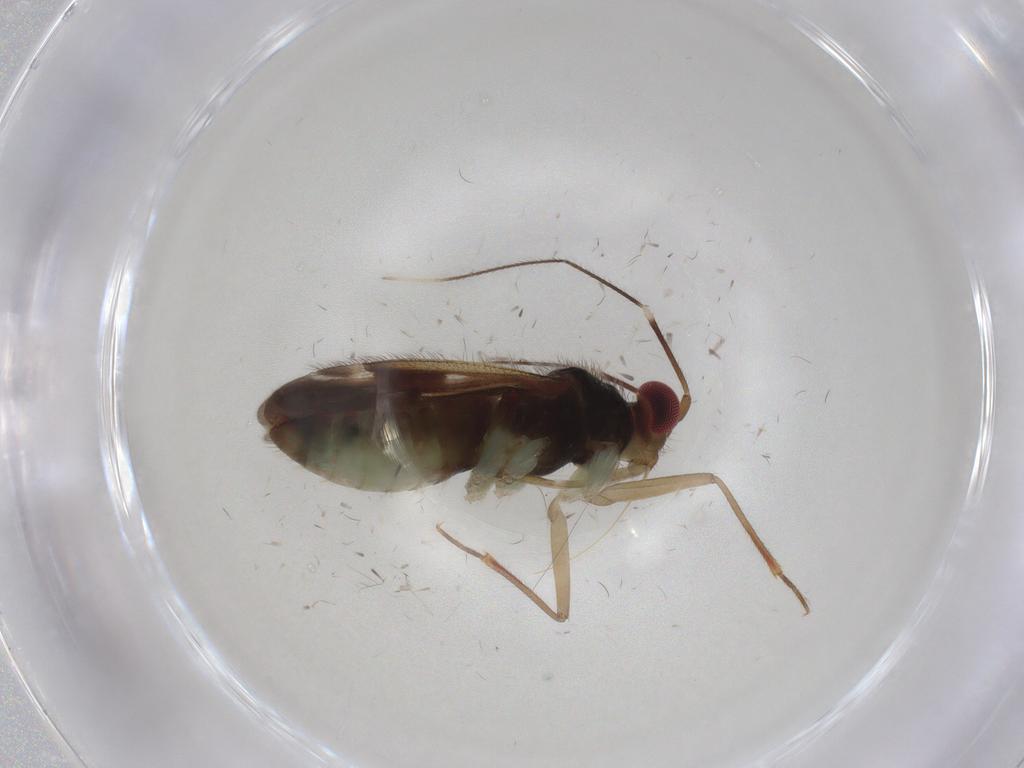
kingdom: Animalia
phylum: Arthropoda
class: Insecta
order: Hemiptera
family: Miridae
